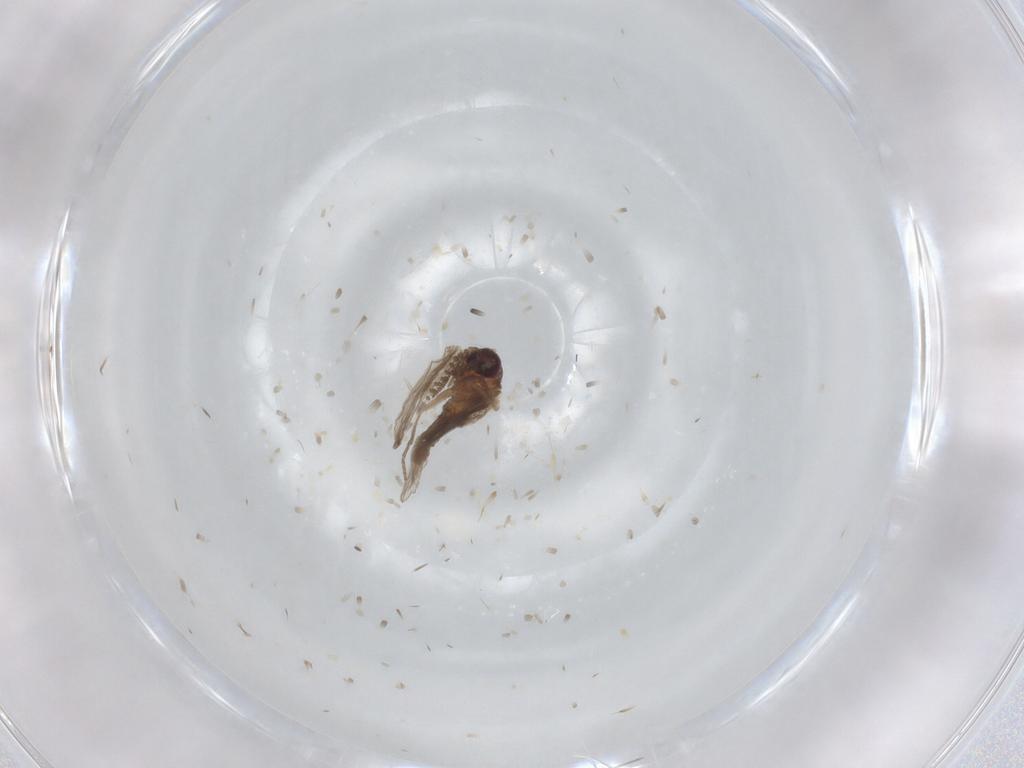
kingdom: Animalia
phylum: Arthropoda
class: Insecta
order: Diptera
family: Psychodidae
